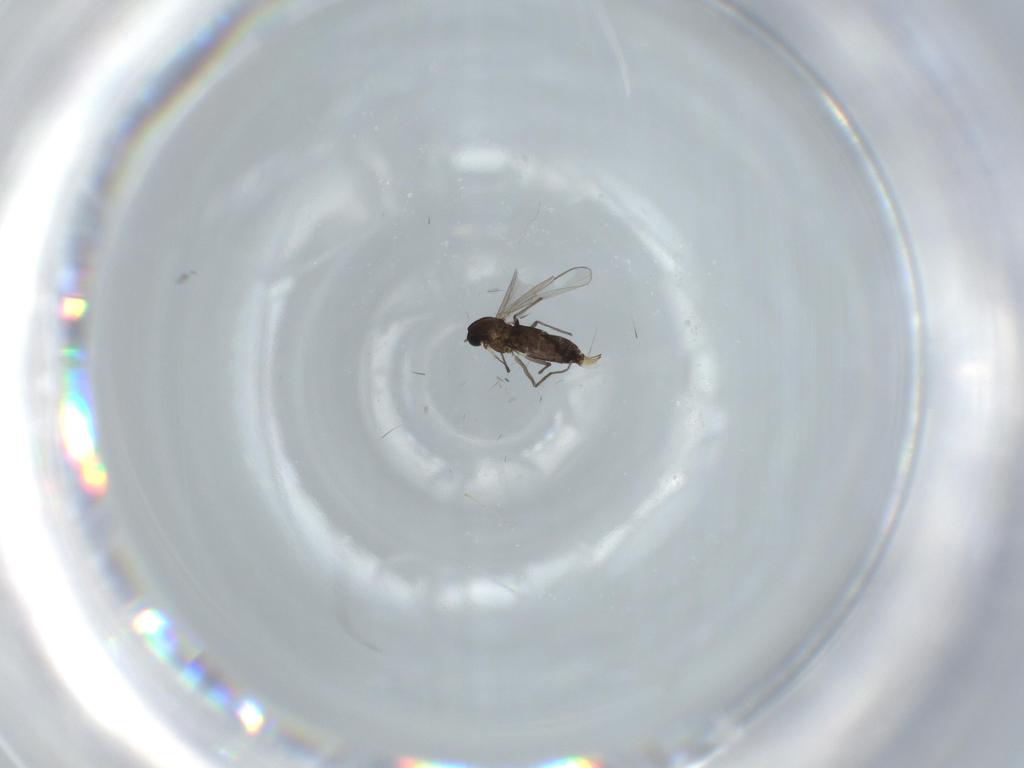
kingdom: Animalia
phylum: Arthropoda
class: Insecta
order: Diptera
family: Chironomidae
